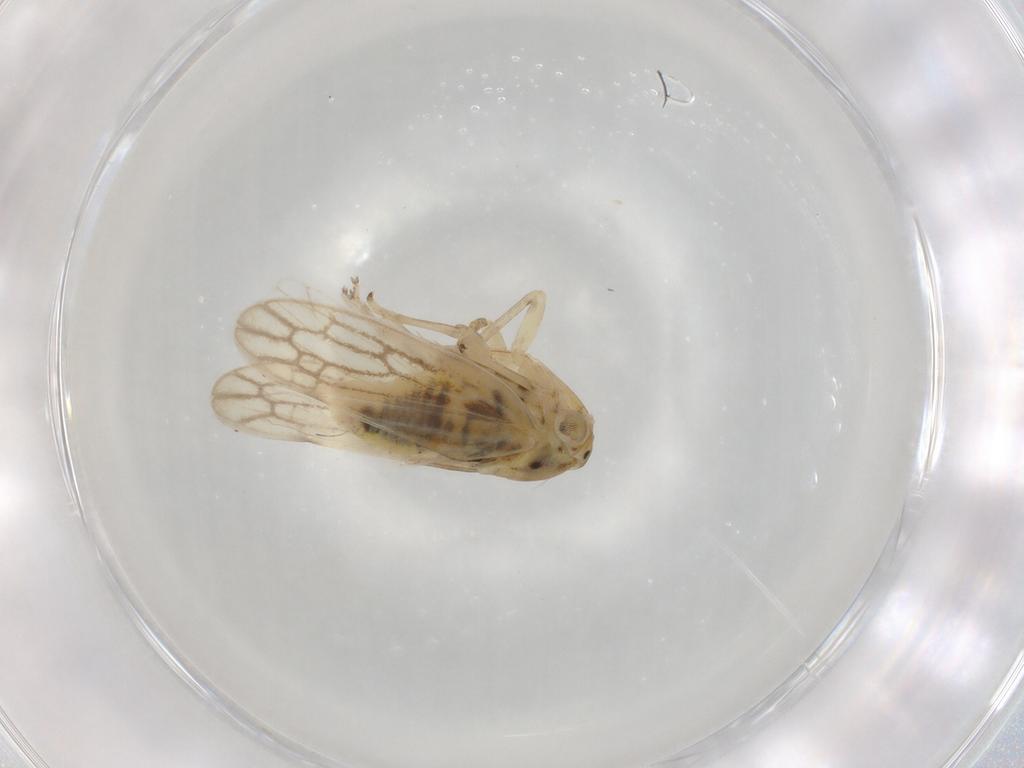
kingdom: Animalia
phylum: Arthropoda
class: Insecta
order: Hemiptera
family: Cicadellidae
